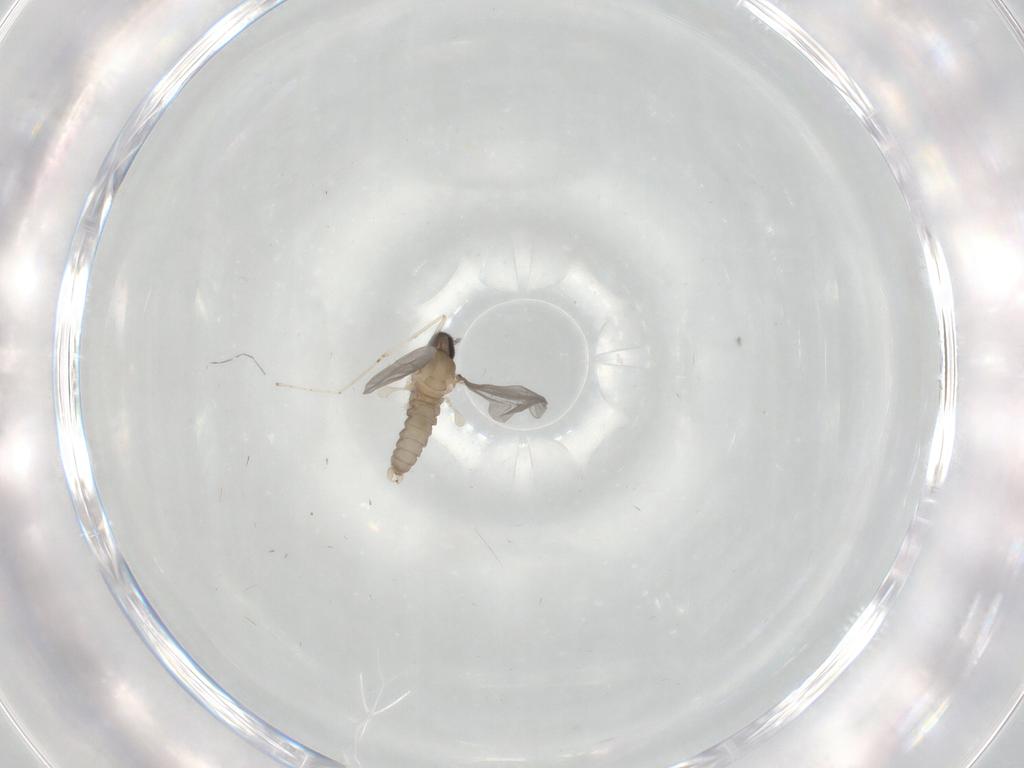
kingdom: Animalia
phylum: Arthropoda
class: Insecta
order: Diptera
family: Cecidomyiidae
